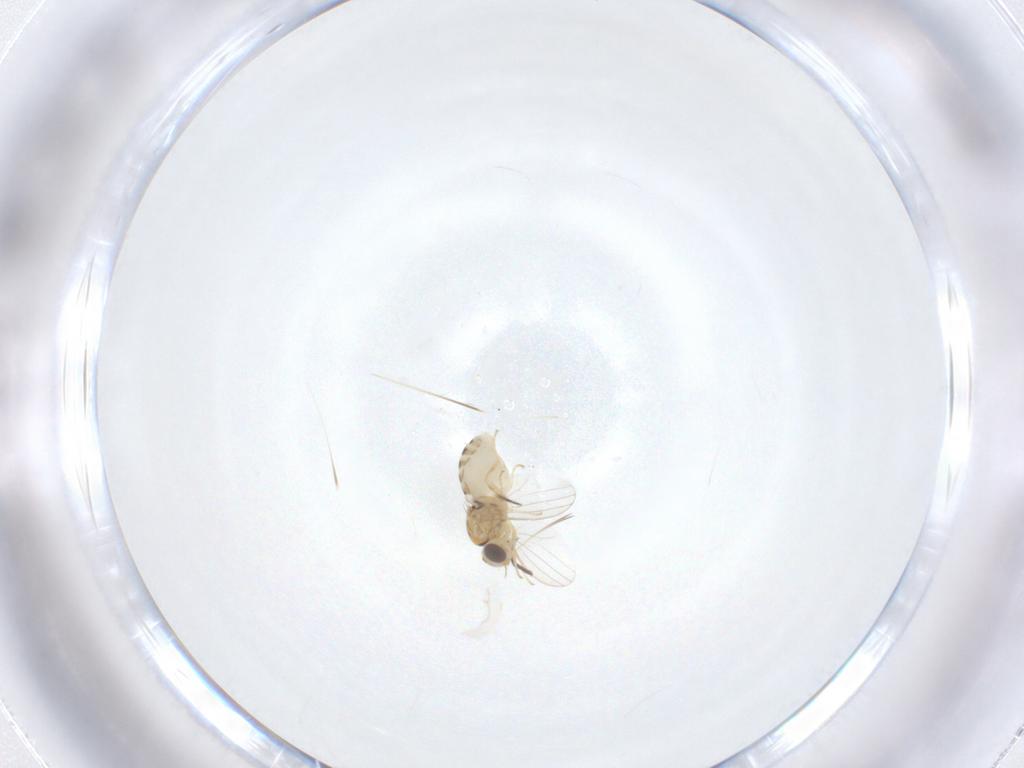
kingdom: Animalia
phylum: Arthropoda
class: Insecta
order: Diptera
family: Chyromyidae
